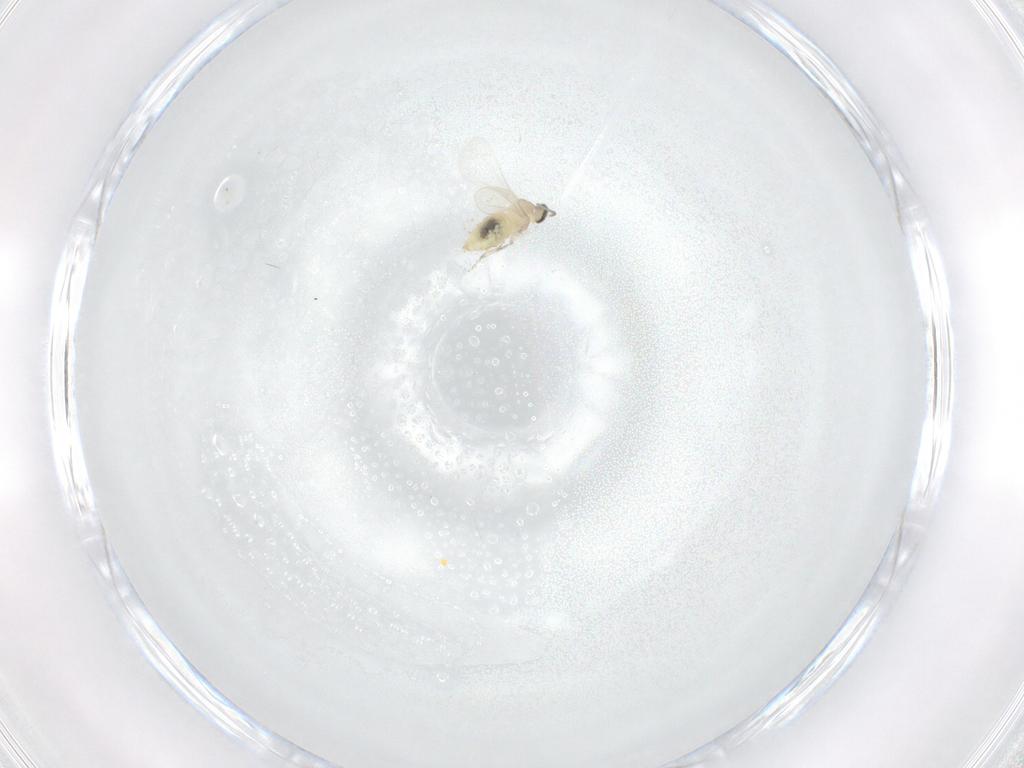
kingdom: Animalia
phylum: Arthropoda
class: Insecta
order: Diptera
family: Cecidomyiidae
